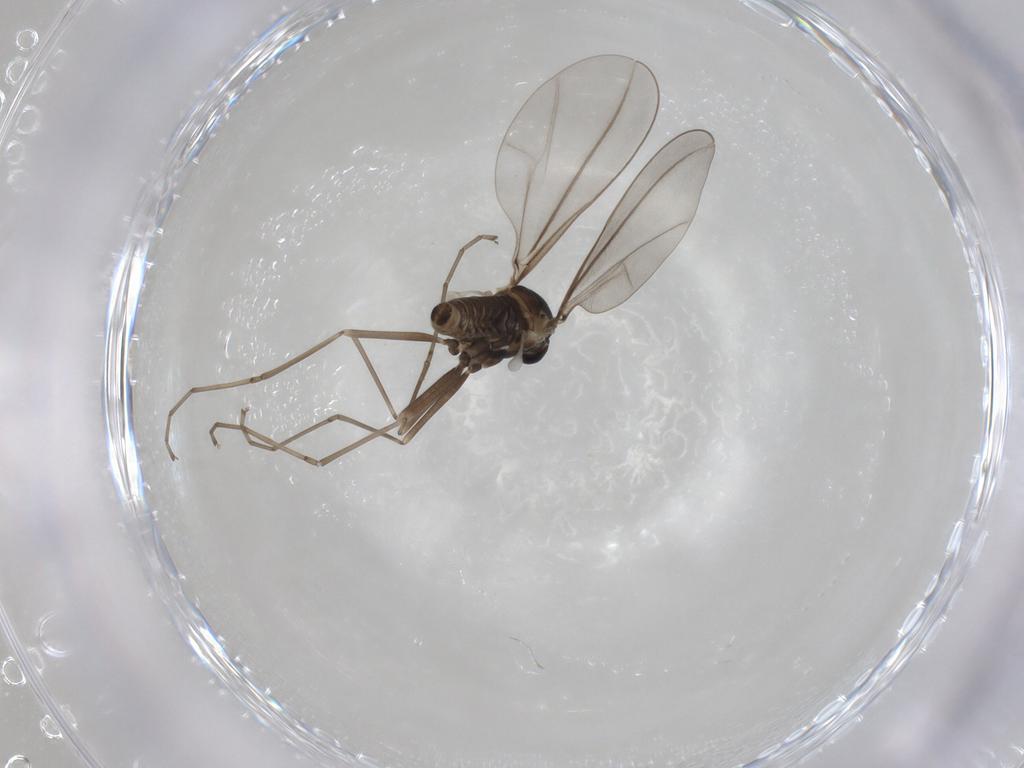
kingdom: Animalia
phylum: Arthropoda
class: Insecta
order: Diptera
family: Cecidomyiidae
